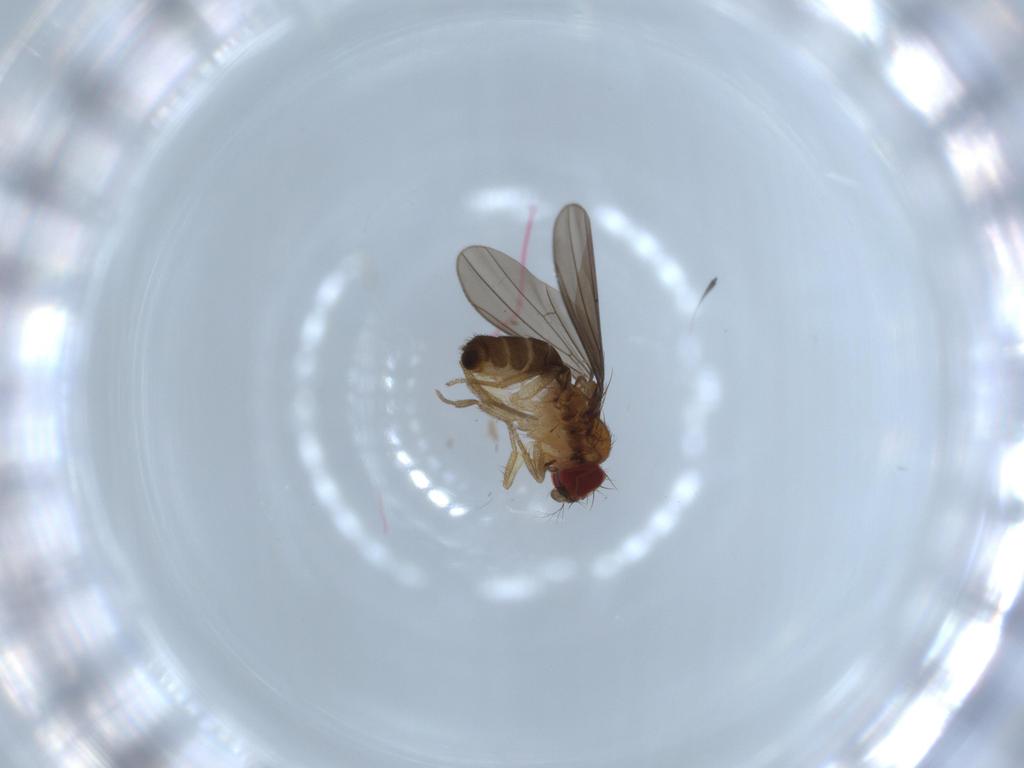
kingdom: Animalia
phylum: Arthropoda
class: Insecta
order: Diptera
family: Drosophilidae
